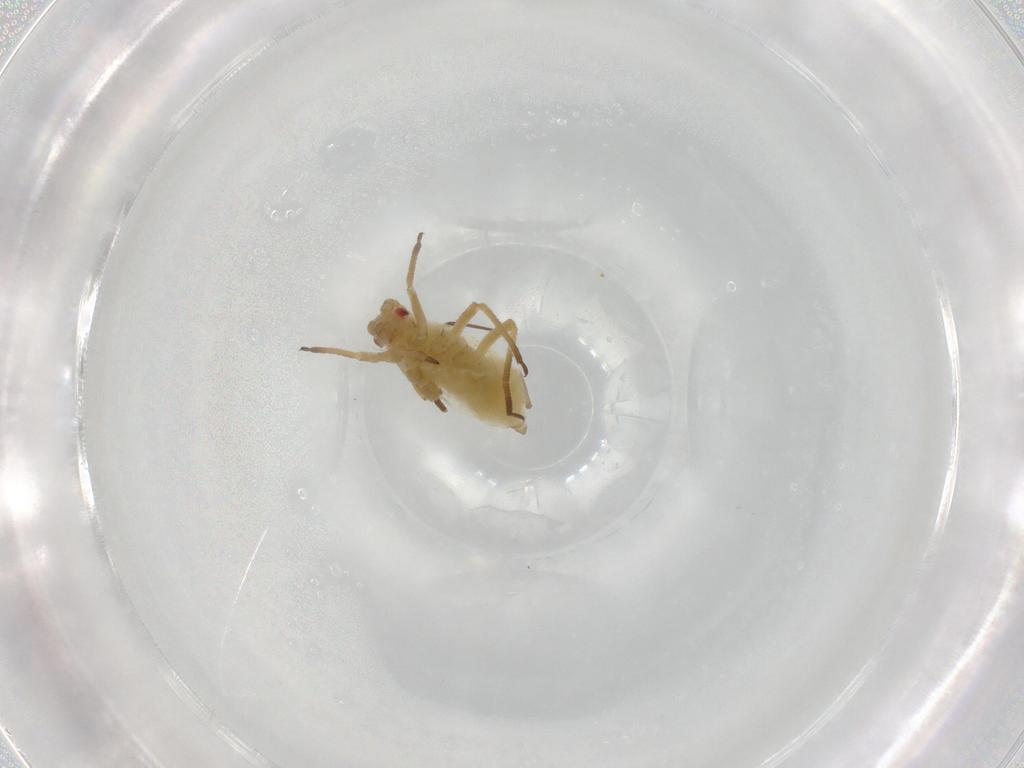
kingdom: Animalia
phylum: Arthropoda
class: Insecta
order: Hemiptera
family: Aphididae
